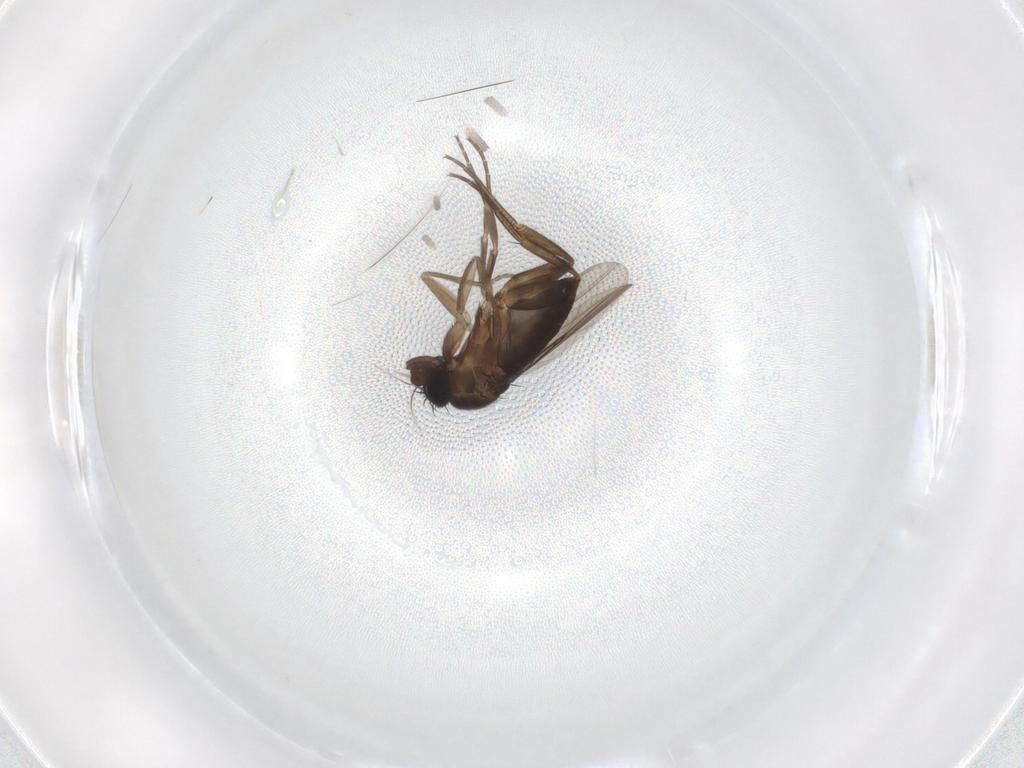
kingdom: Animalia
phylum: Arthropoda
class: Insecta
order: Diptera
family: Phoridae
